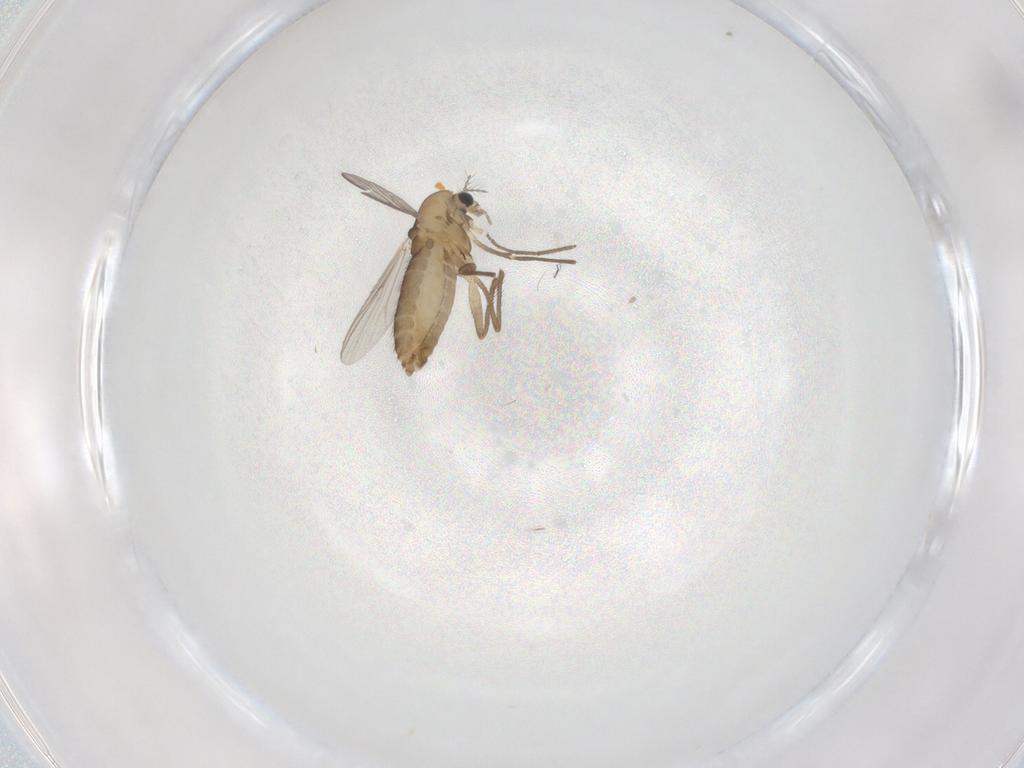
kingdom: Animalia
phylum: Arthropoda
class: Insecta
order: Diptera
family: Chironomidae
